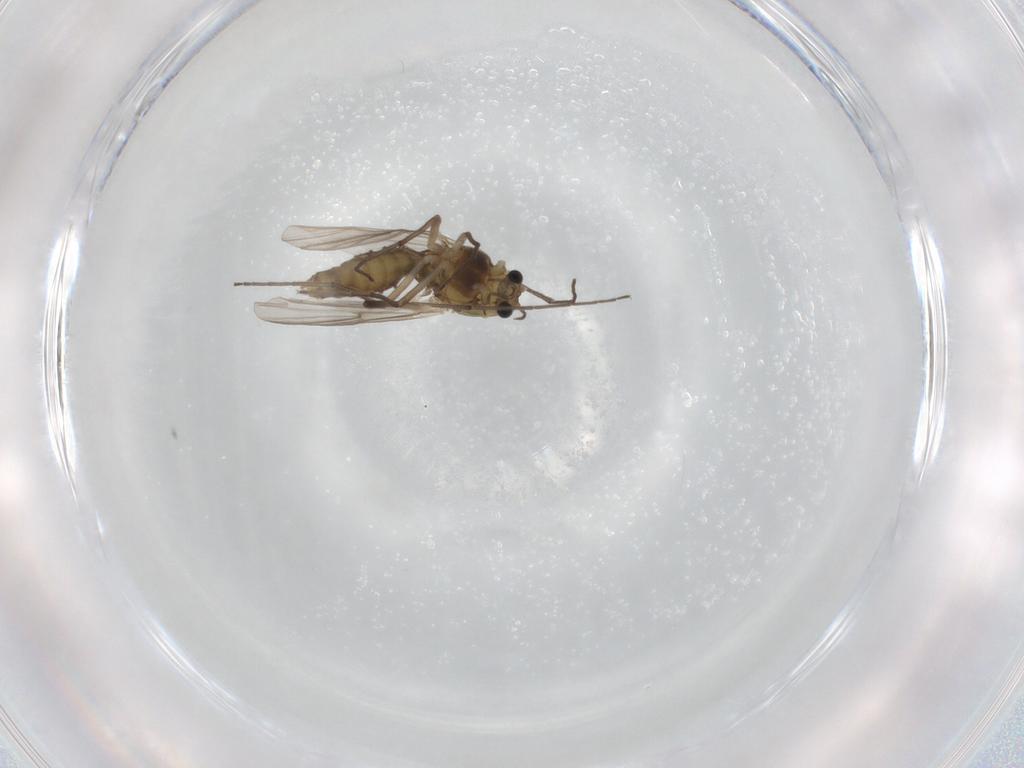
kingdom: Animalia
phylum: Arthropoda
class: Insecta
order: Diptera
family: Chironomidae
